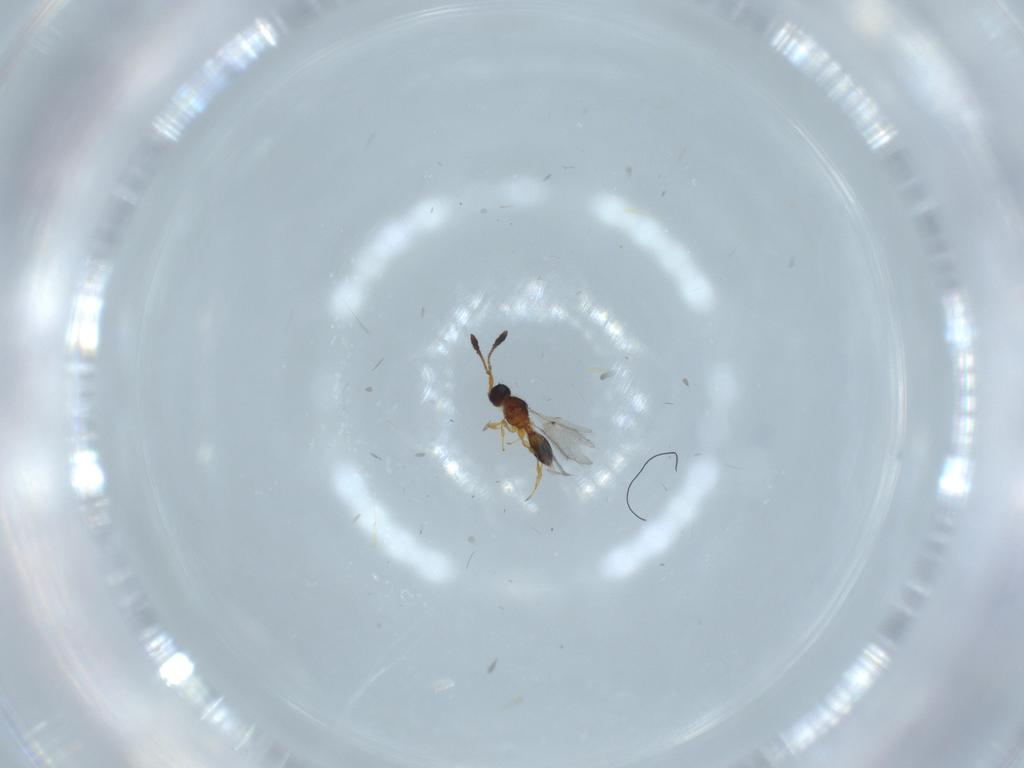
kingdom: Animalia
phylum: Arthropoda
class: Insecta
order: Hymenoptera
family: Diapriidae
